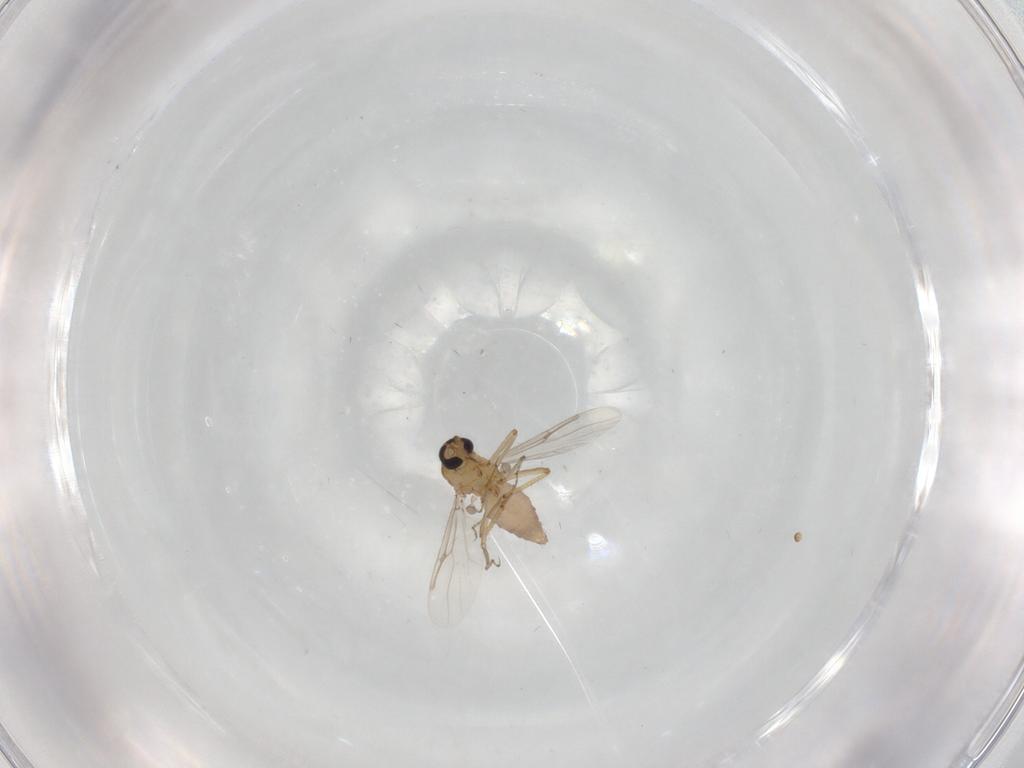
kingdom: Animalia
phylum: Arthropoda
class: Insecta
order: Diptera
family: Ceratopogonidae
